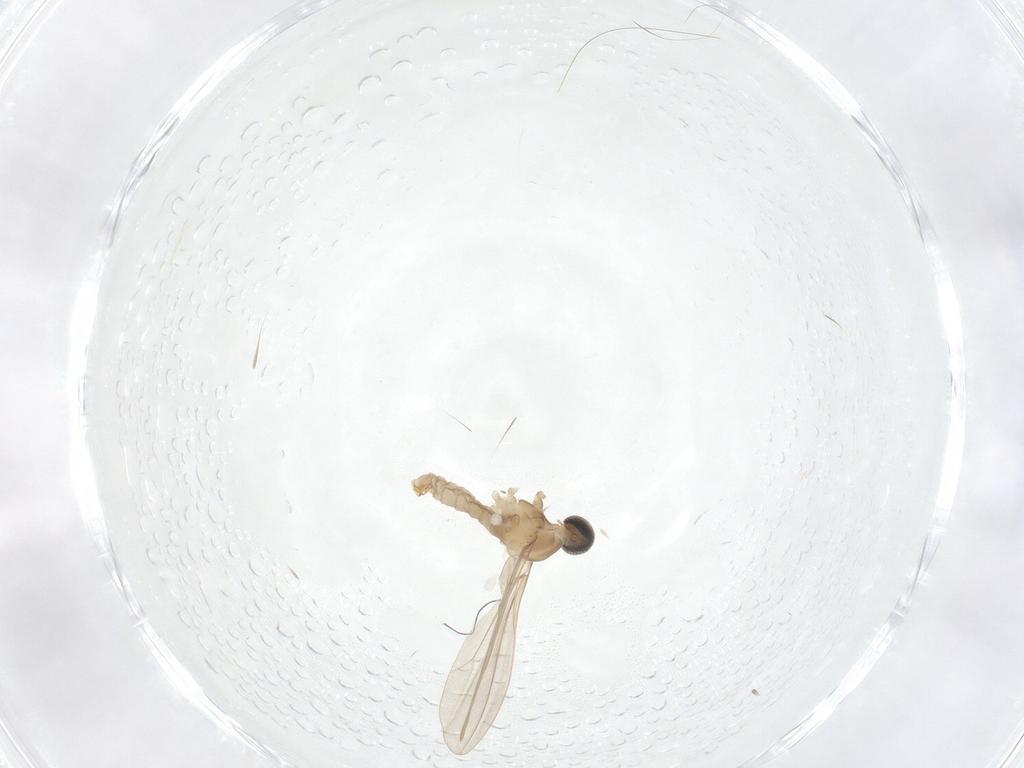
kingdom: Animalia
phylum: Arthropoda
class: Insecta
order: Diptera
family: Cecidomyiidae
